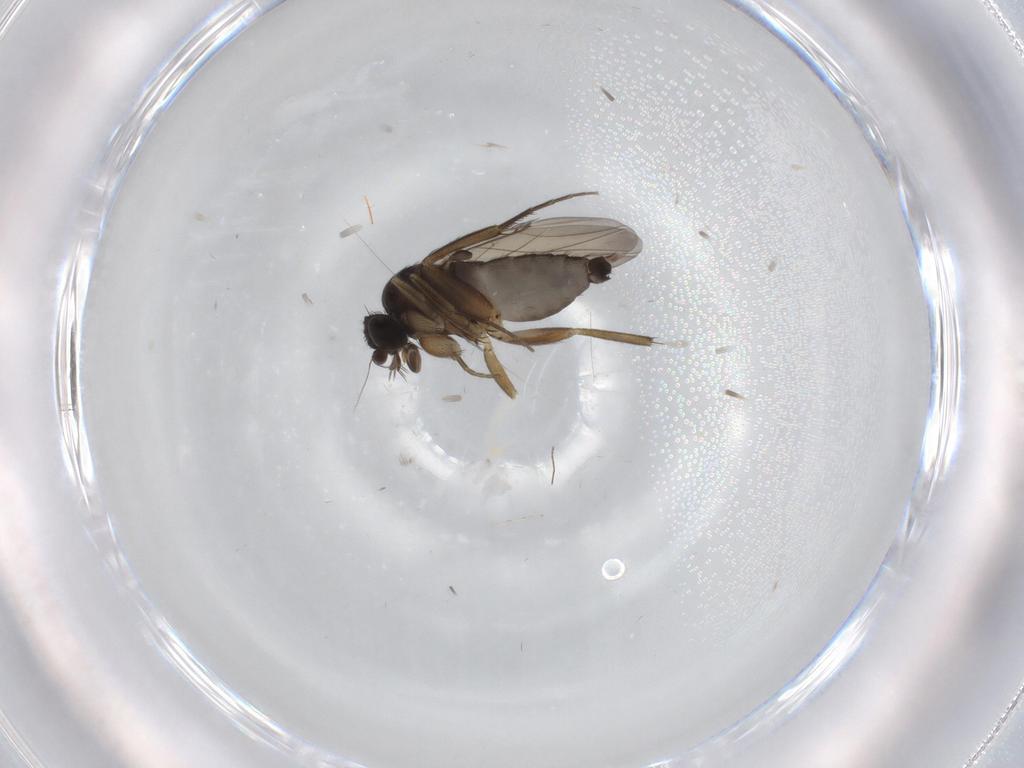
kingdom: Animalia
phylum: Arthropoda
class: Insecta
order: Diptera
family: Phoridae
